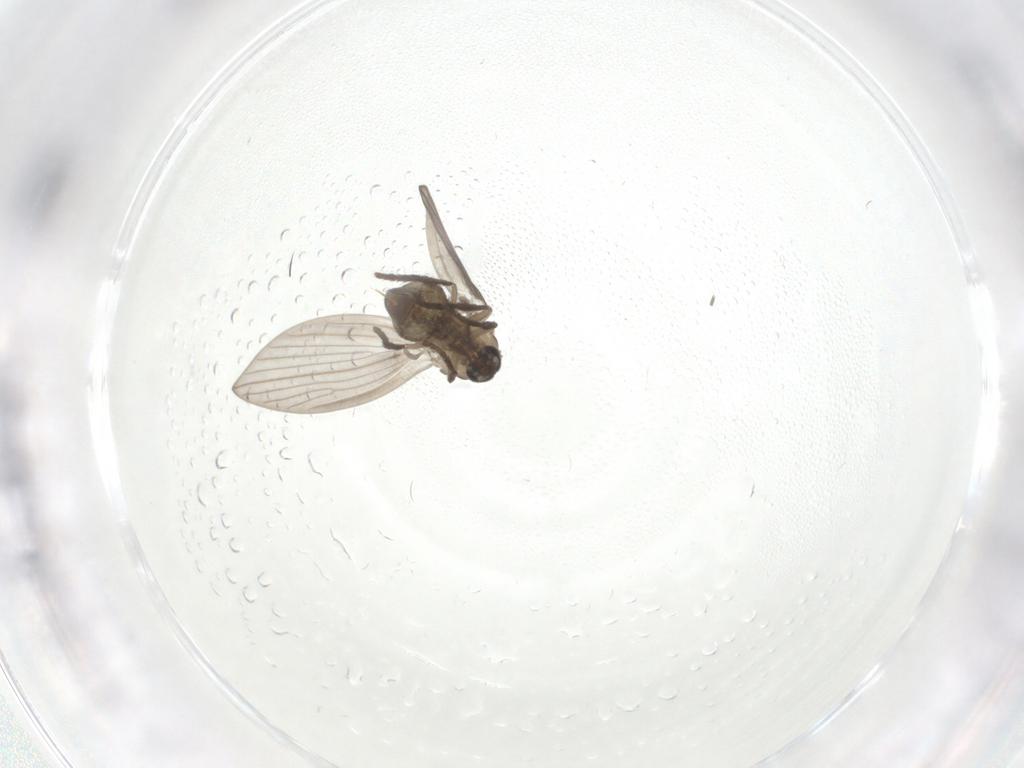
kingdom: Animalia
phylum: Arthropoda
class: Insecta
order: Diptera
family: Psychodidae
